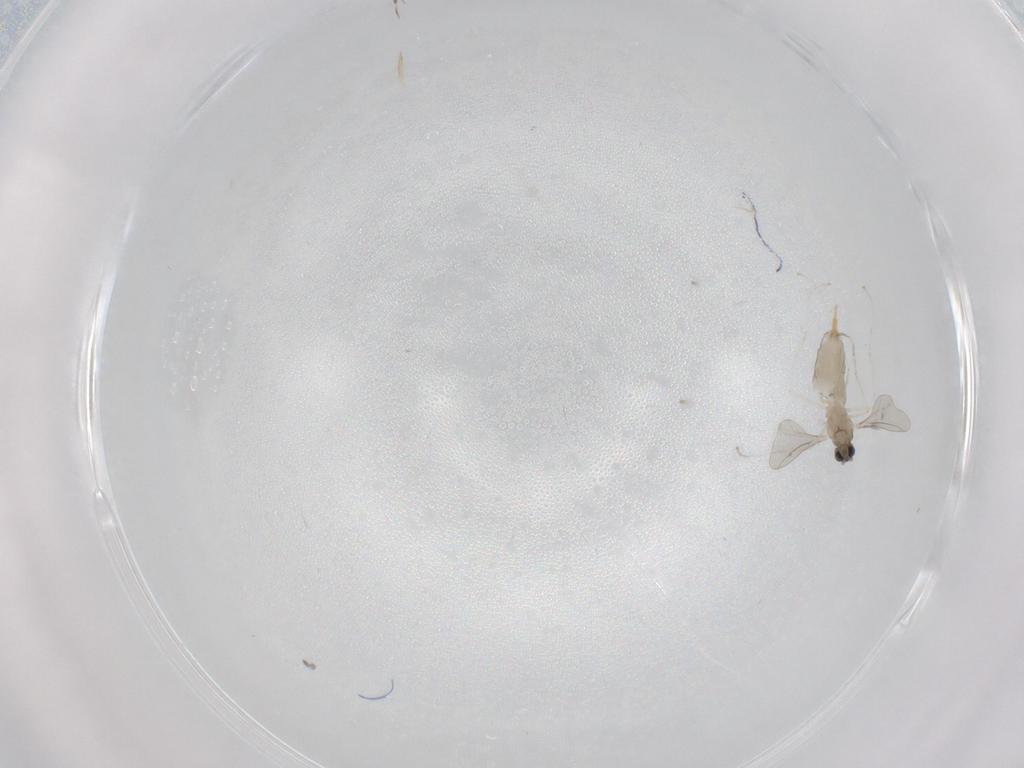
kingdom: Animalia
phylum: Arthropoda
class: Insecta
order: Diptera
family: Cecidomyiidae
